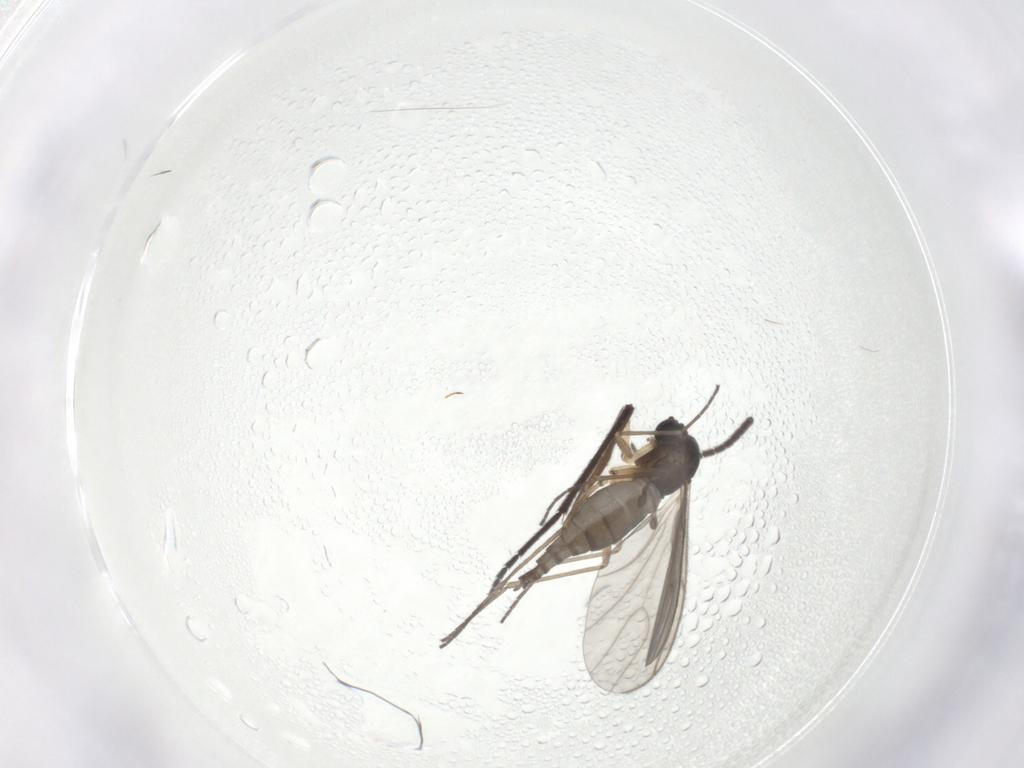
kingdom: Animalia
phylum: Arthropoda
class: Insecta
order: Diptera
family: Sciaridae
